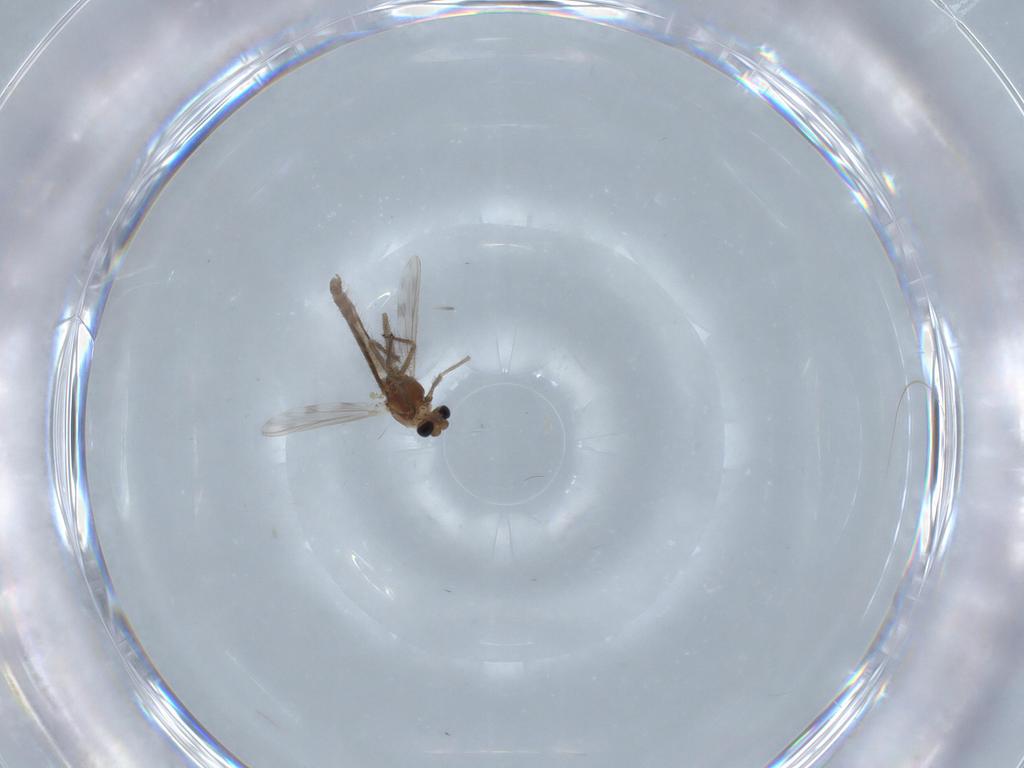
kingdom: Animalia
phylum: Arthropoda
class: Insecta
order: Diptera
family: Chironomidae
